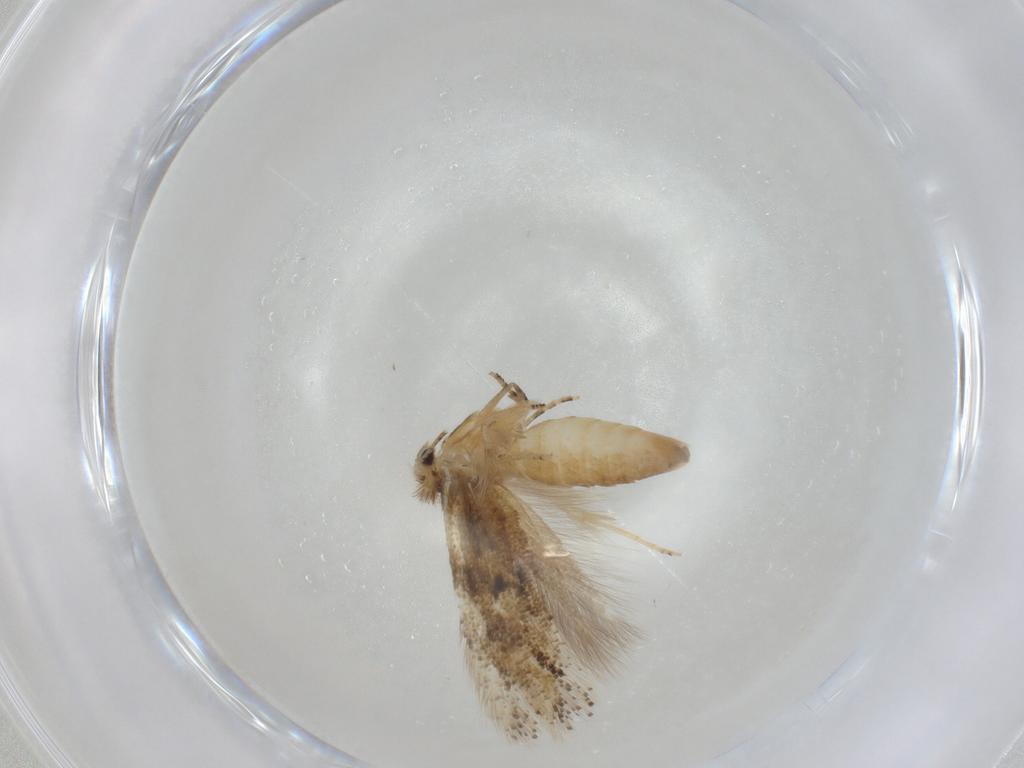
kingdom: Animalia
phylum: Arthropoda
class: Insecta
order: Lepidoptera
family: Bucculatricidae
